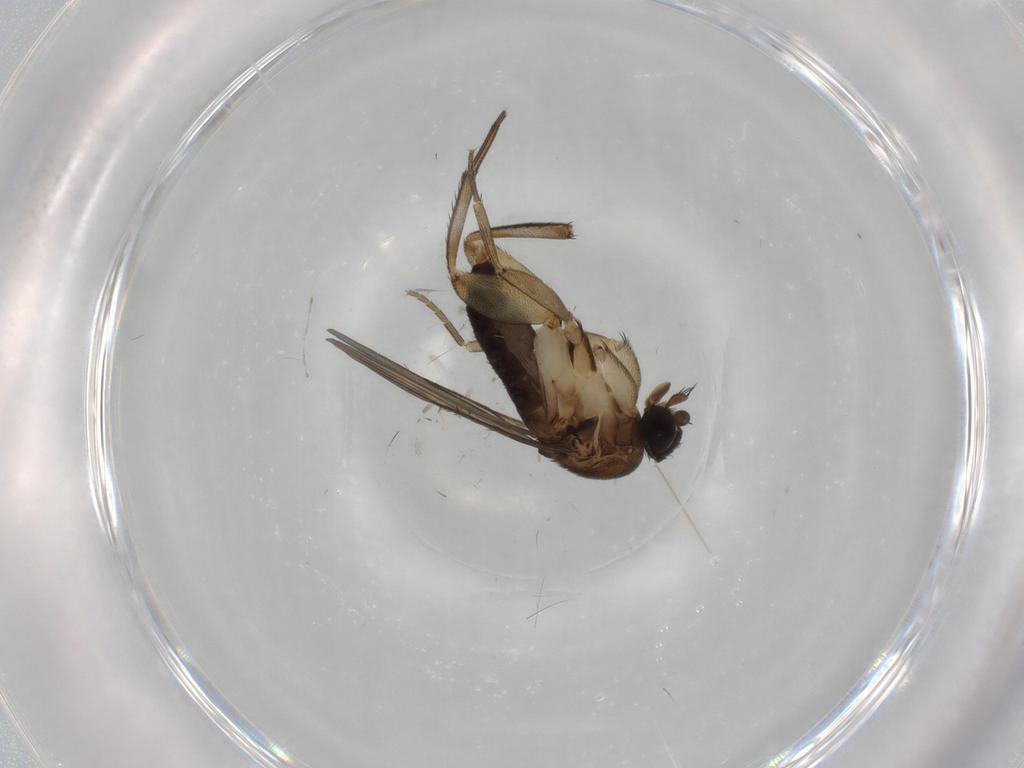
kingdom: Animalia
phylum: Arthropoda
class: Insecta
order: Diptera
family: Phoridae
